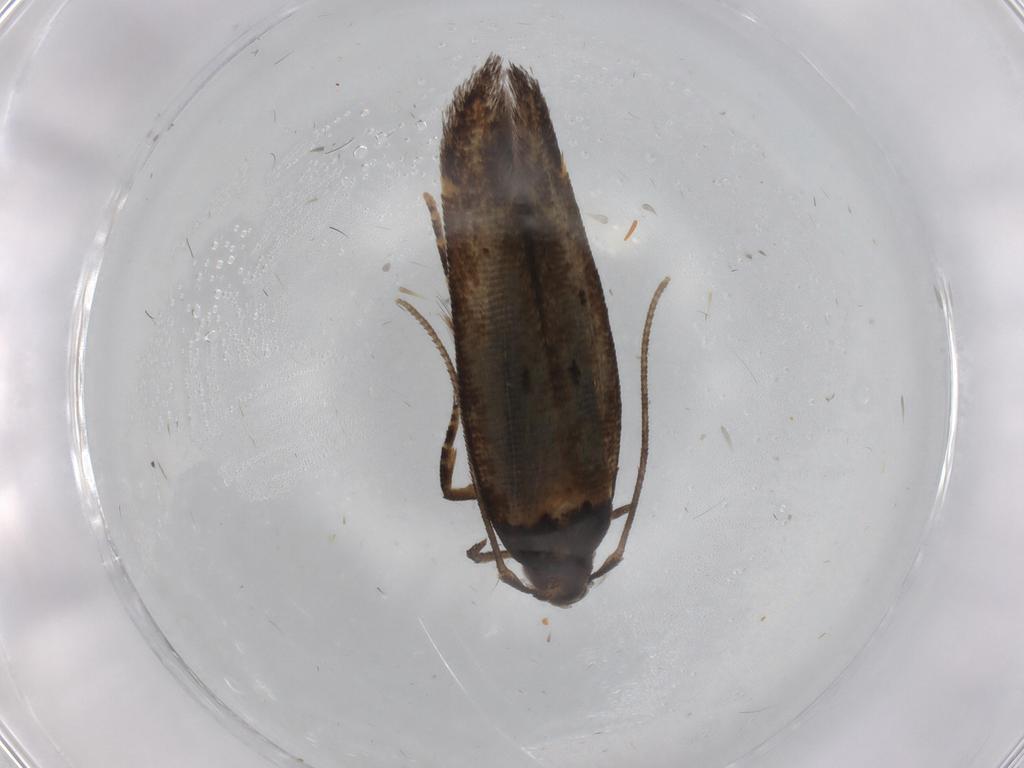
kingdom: Animalia
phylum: Arthropoda
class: Insecta
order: Lepidoptera
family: Cosmopterigidae
